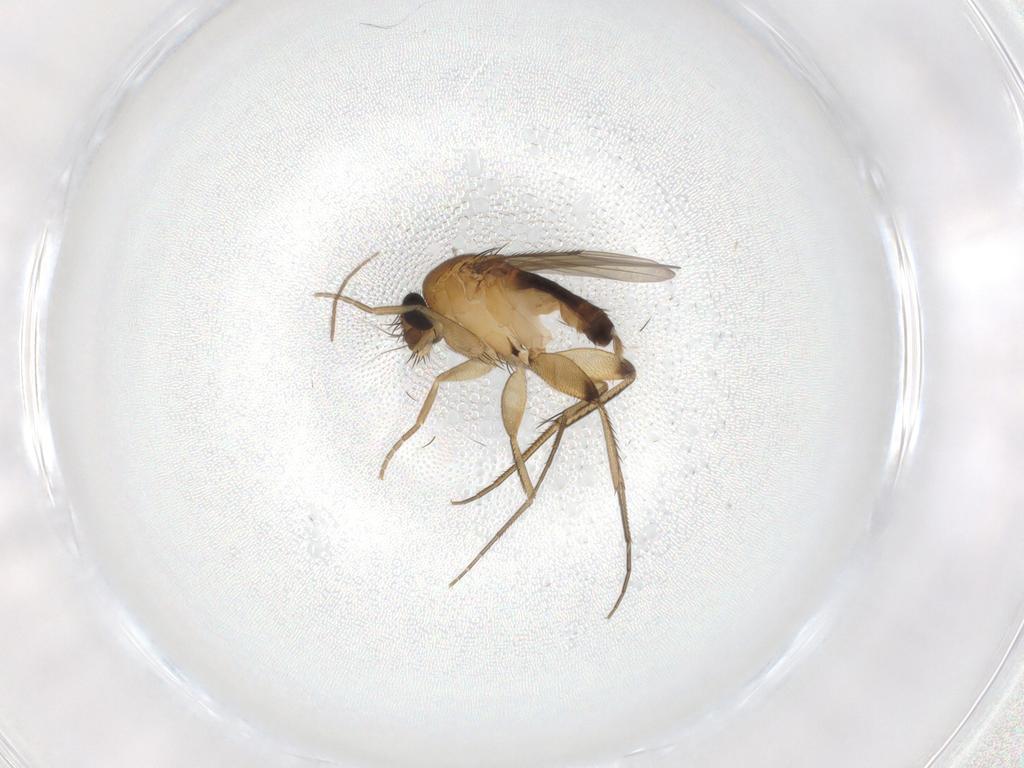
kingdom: Animalia
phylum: Arthropoda
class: Insecta
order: Diptera
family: Phoridae
